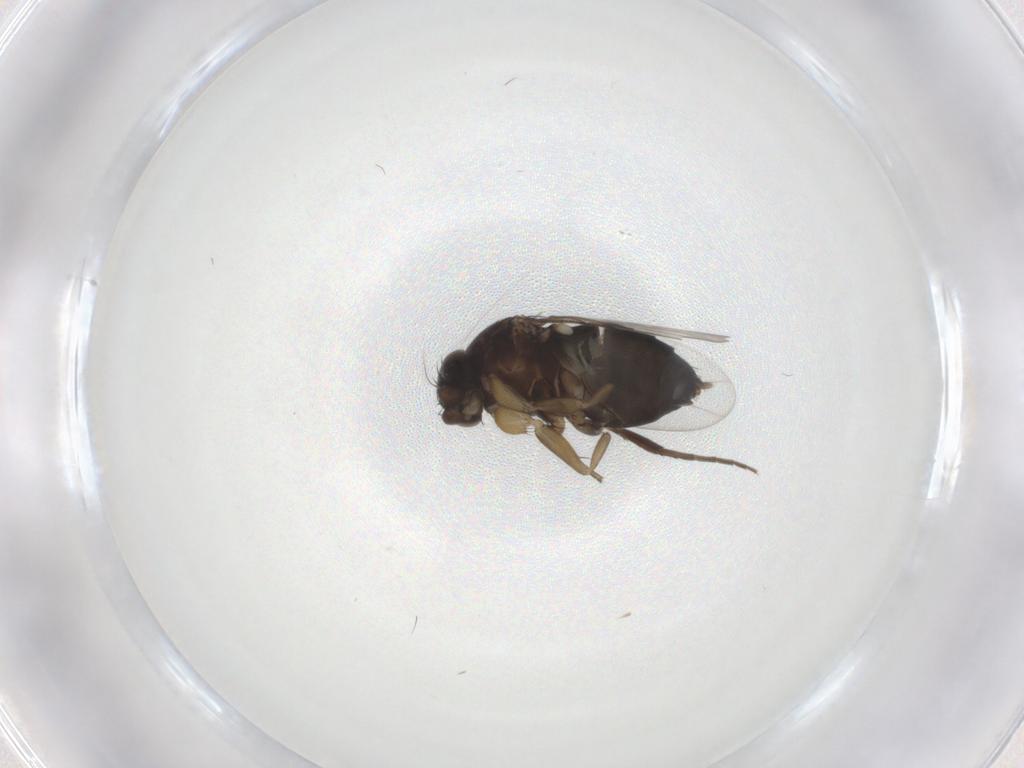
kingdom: Animalia
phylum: Arthropoda
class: Insecta
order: Diptera
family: Phoridae
